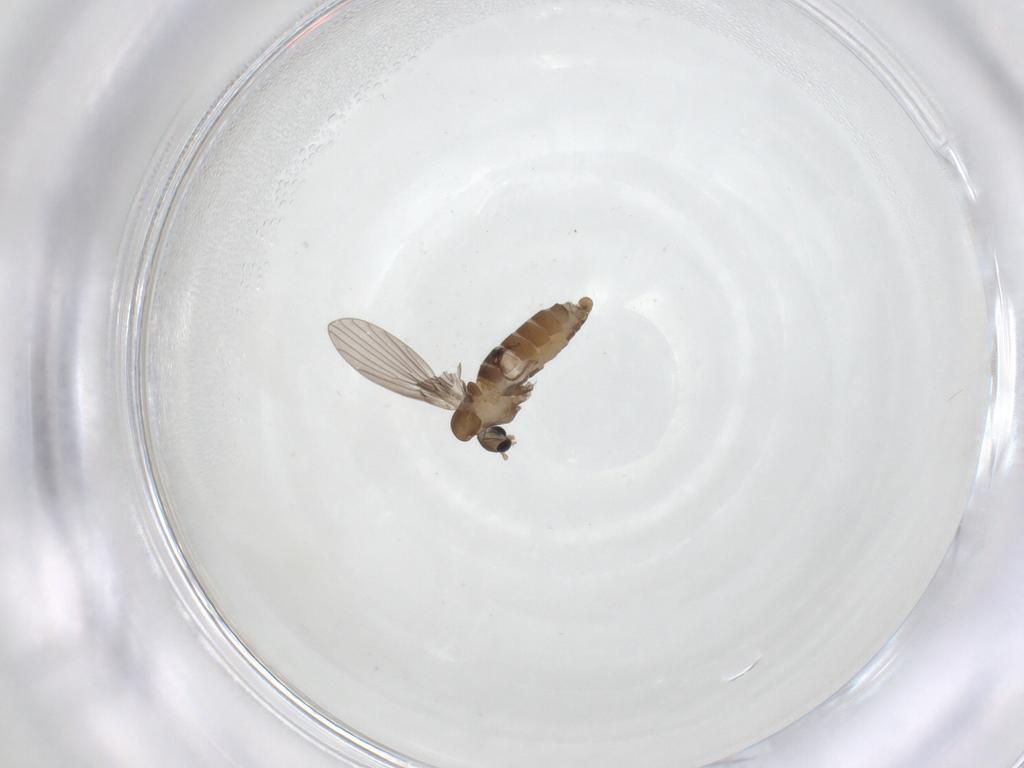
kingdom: Animalia
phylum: Arthropoda
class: Insecta
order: Diptera
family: Psychodidae
